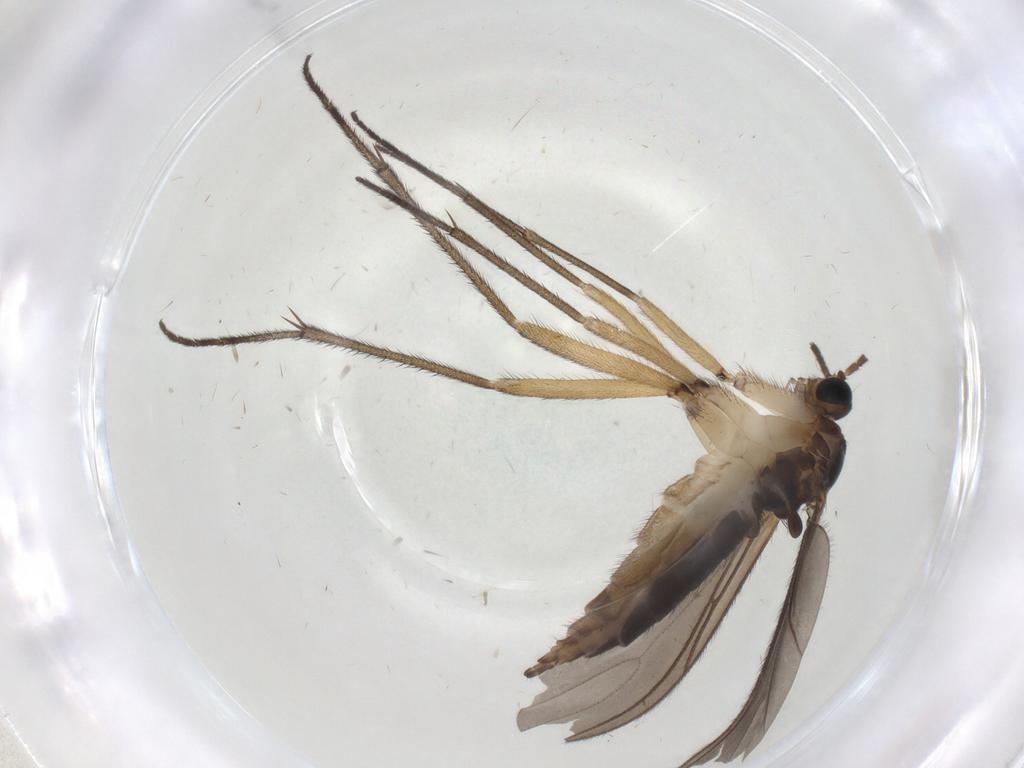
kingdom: Animalia
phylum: Arthropoda
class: Insecta
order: Diptera
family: Sciaridae
